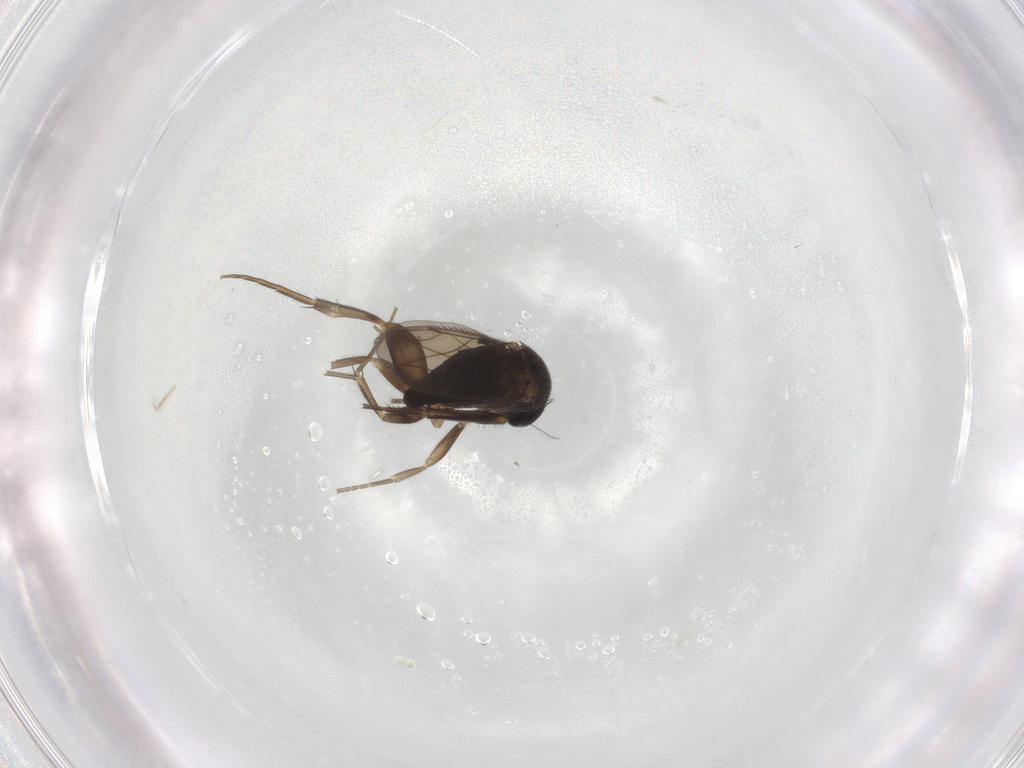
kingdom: Animalia
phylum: Arthropoda
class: Insecta
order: Diptera
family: Phoridae
